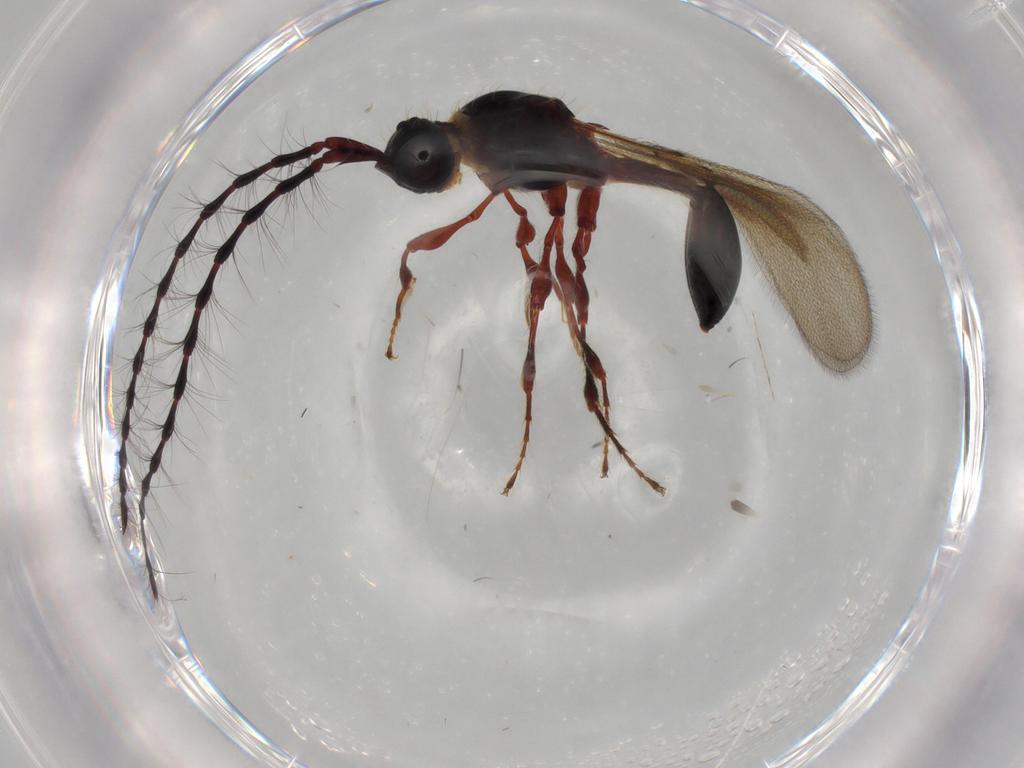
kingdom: Animalia
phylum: Arthropoda
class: Insecta
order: Hymenoptera
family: Diapriidae
